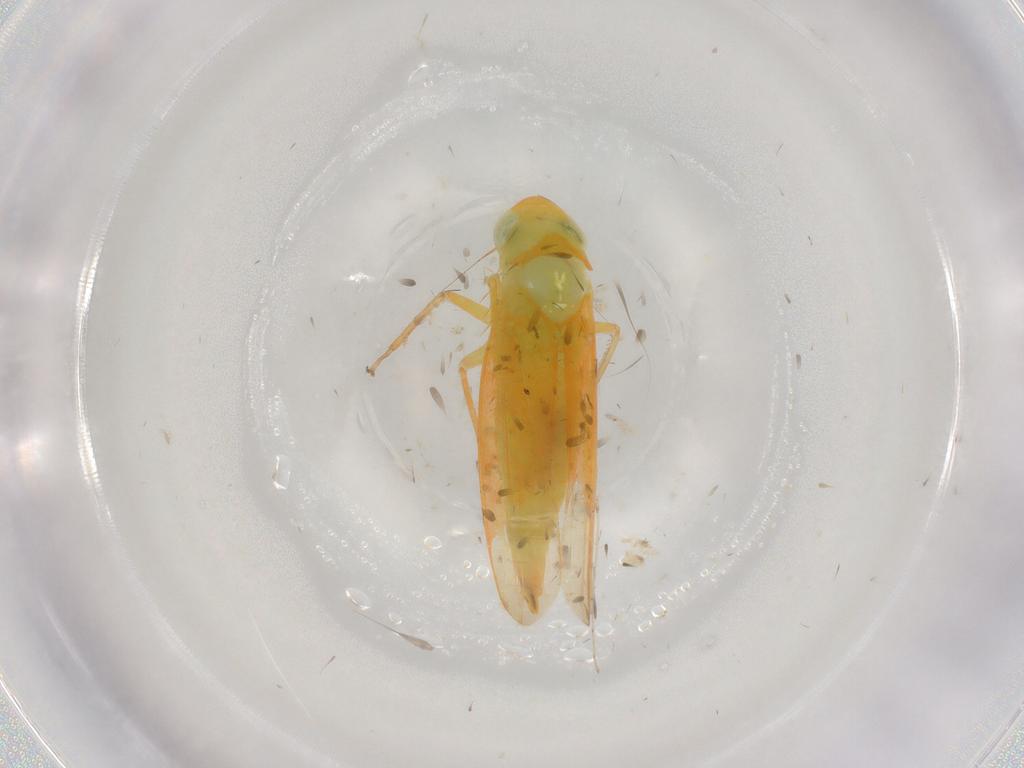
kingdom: Animalia
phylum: Arthropoda
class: Insecta
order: Hemiptera
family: Cicadellidae
